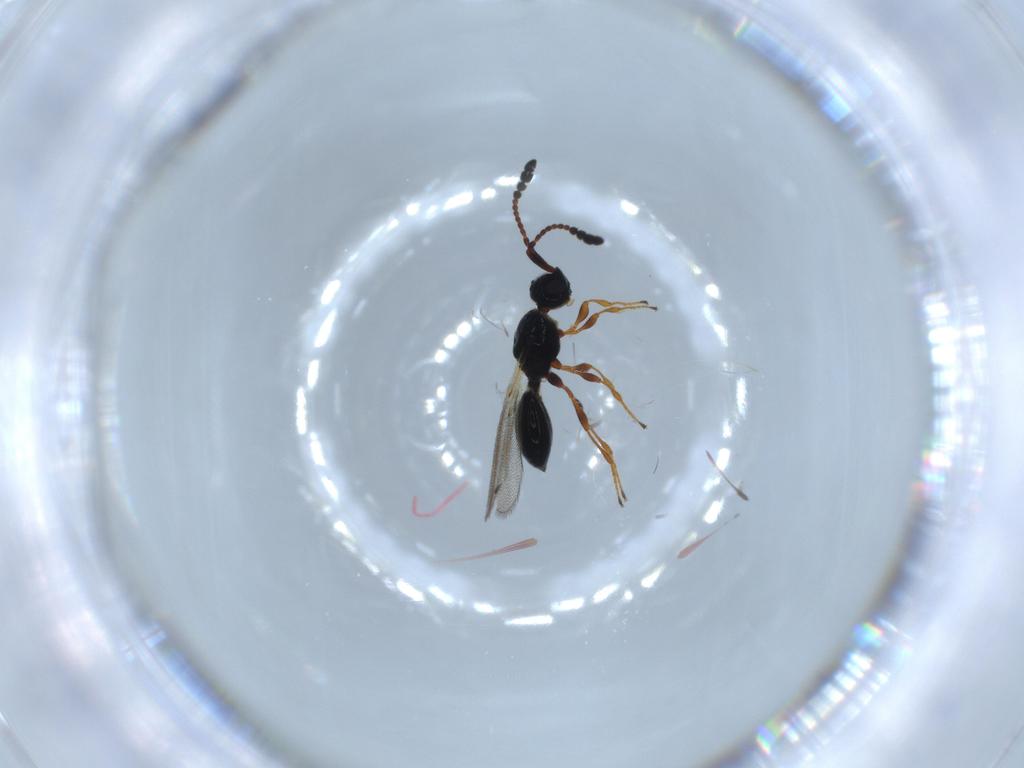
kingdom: Animalia
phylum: Arthropoda
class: Insecta
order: Hymenoptera
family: Diapriidae
